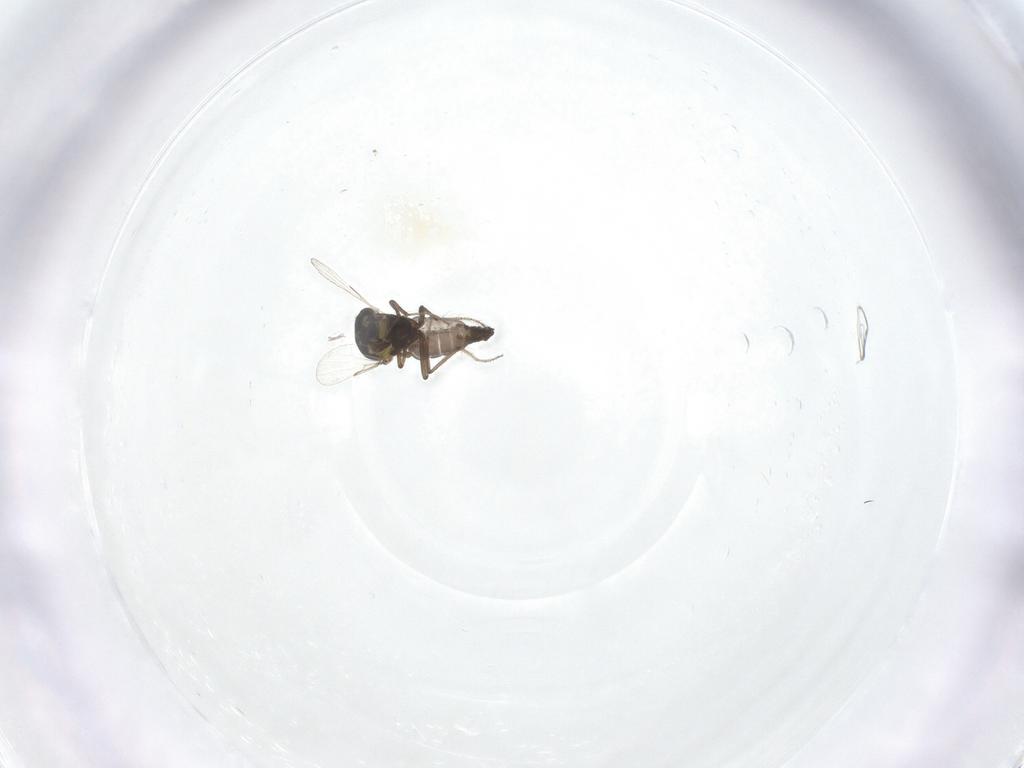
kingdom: Animalia
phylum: Arthropoda
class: Insecta
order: Diptera
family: Ceratopogonidae
